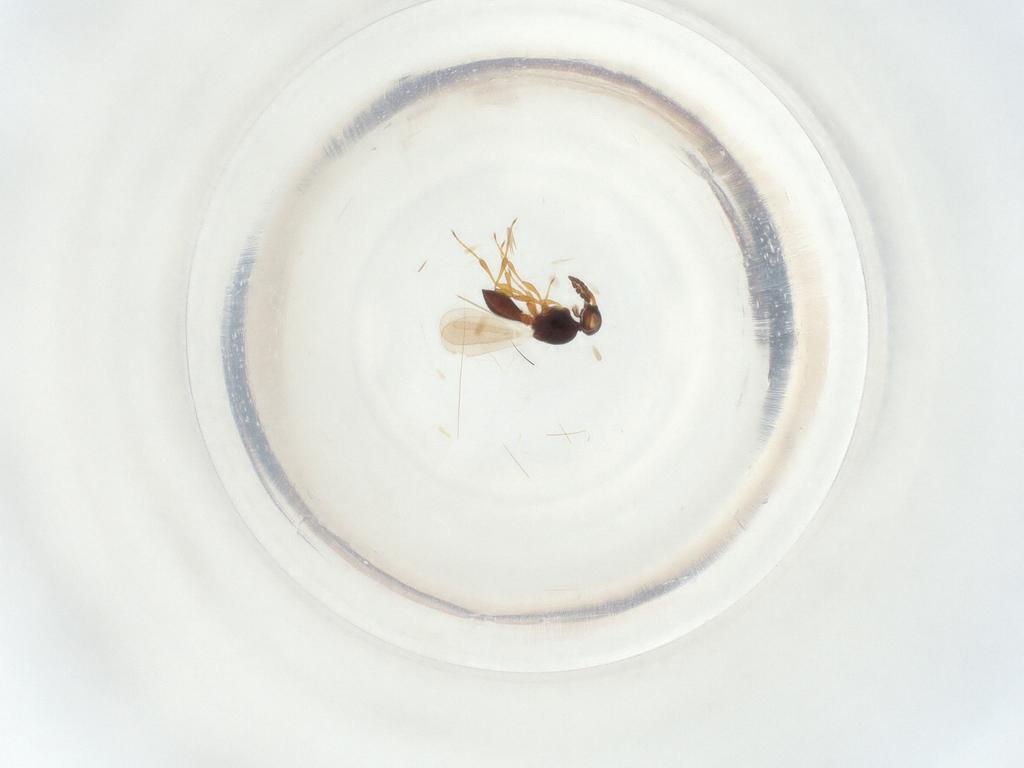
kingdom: Animalia
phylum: Arthropoda
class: Insecta
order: Hymenoptera
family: Platygastridae
